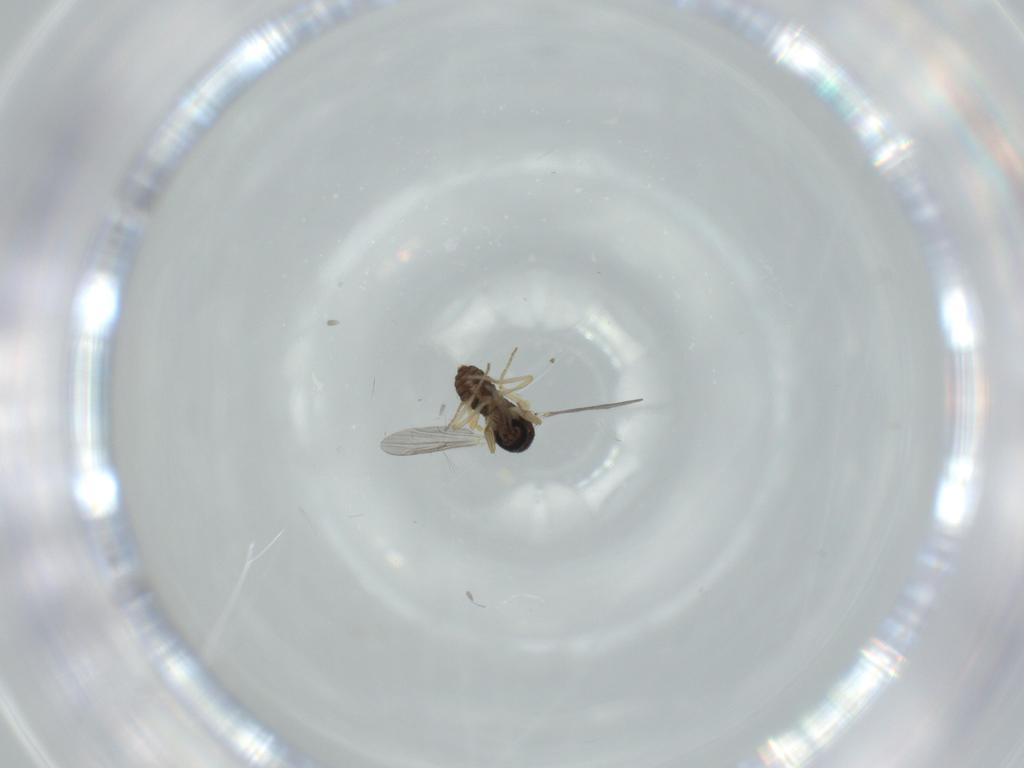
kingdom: Animalia
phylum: Arthropoda
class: Insecta
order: Diptera
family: Ceratopogonidae
